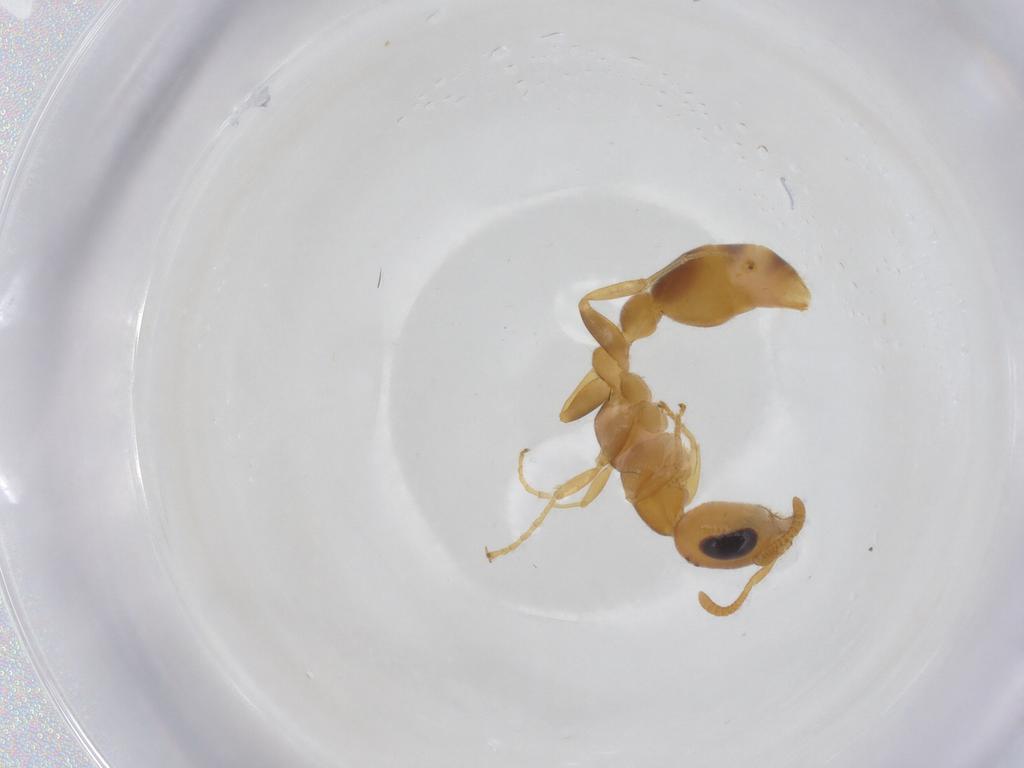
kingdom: Animalia
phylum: Arthropoda
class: Insecta
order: Hymenoptera
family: Formicidae
